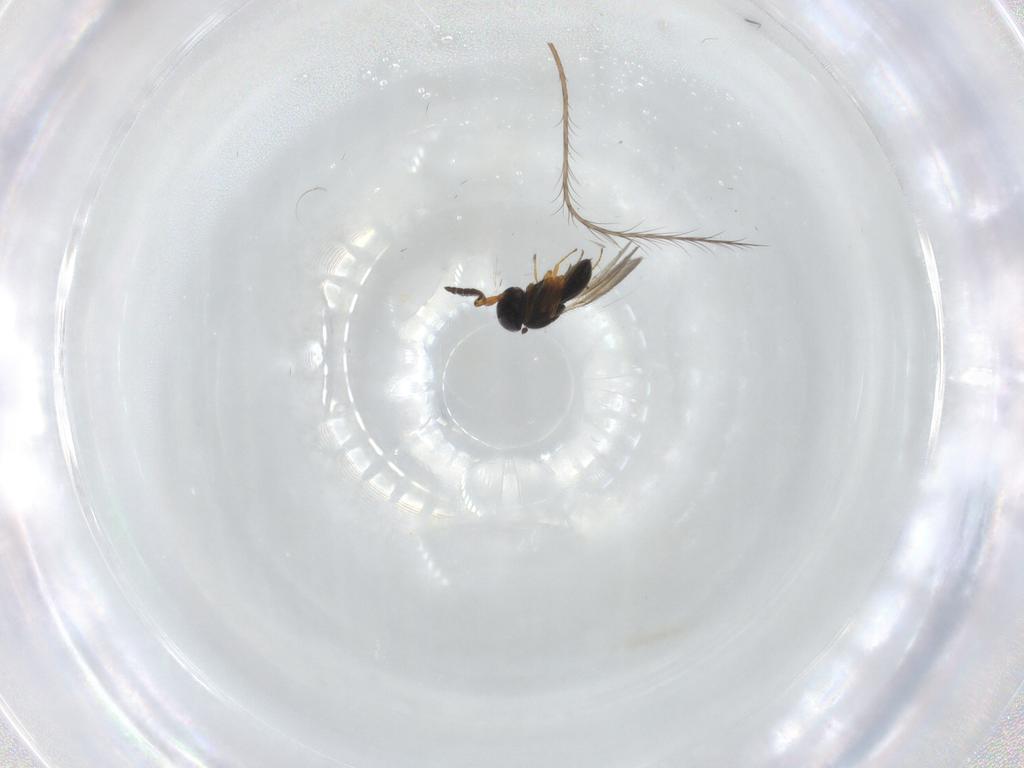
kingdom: Animalia
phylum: Arthropoda
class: Insecta
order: Hymenoptera
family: Scelionidae
